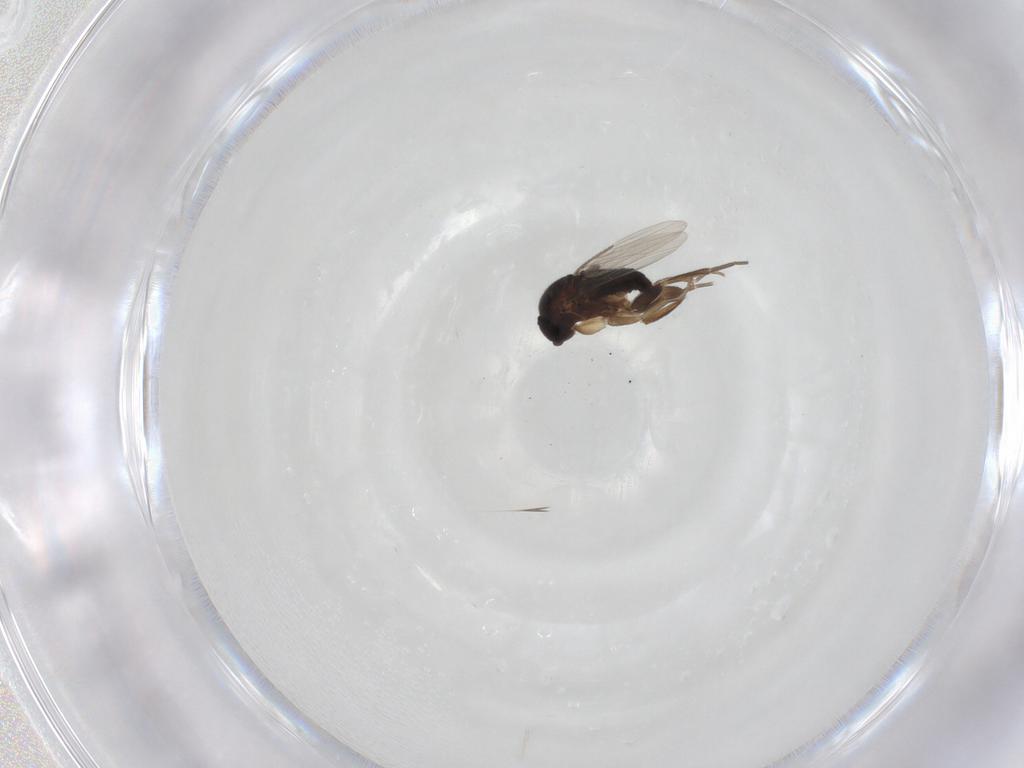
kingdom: Animalia
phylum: Arthropoda
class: Insecta
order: Diptera
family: Phoridae
